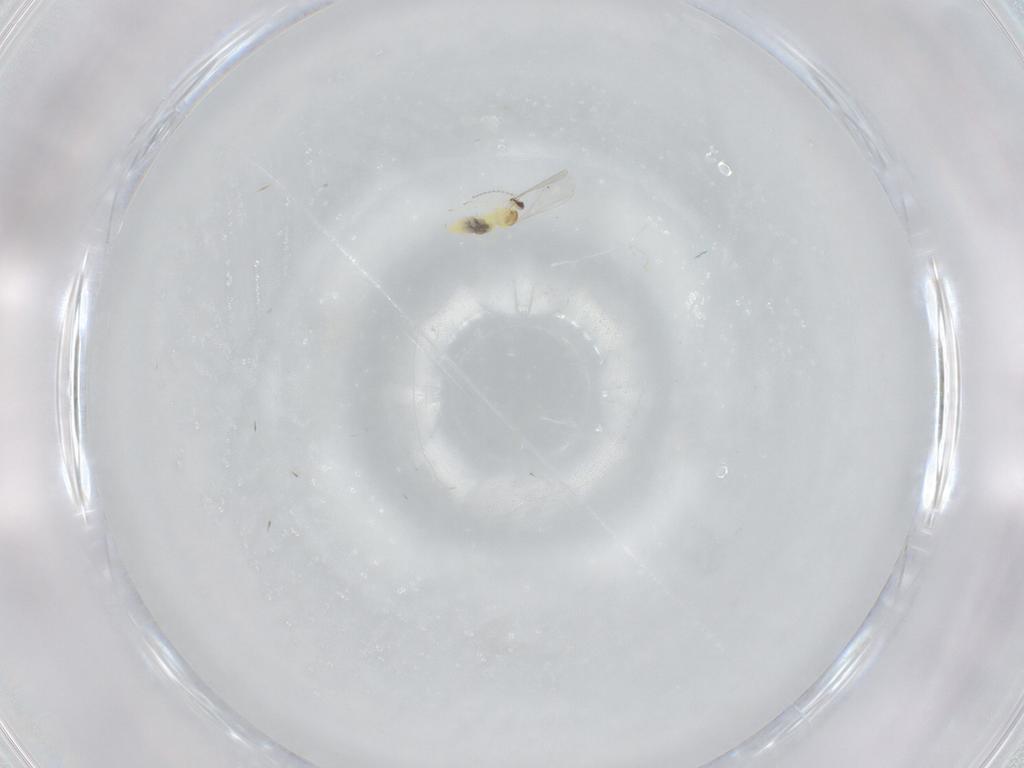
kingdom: Animalia
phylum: Arthropoda
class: Insecta
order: Diptera
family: Cecidomyiidae
